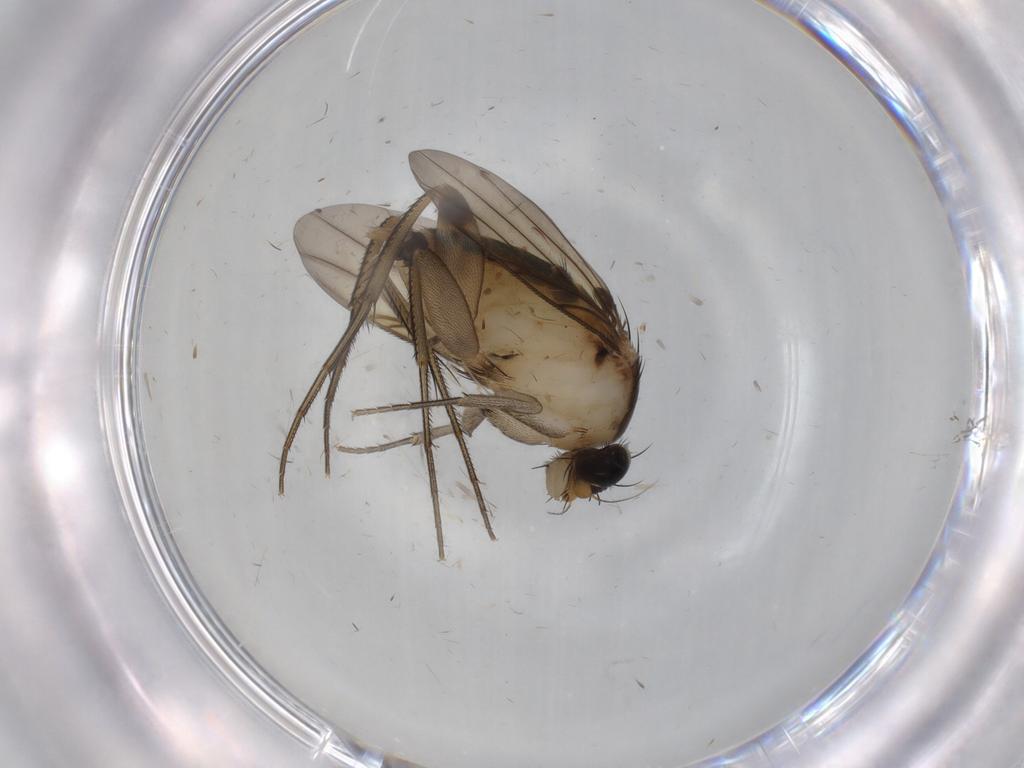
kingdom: Animalia
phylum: Arthropoda
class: Insecta
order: Diptera
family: Phoridae
